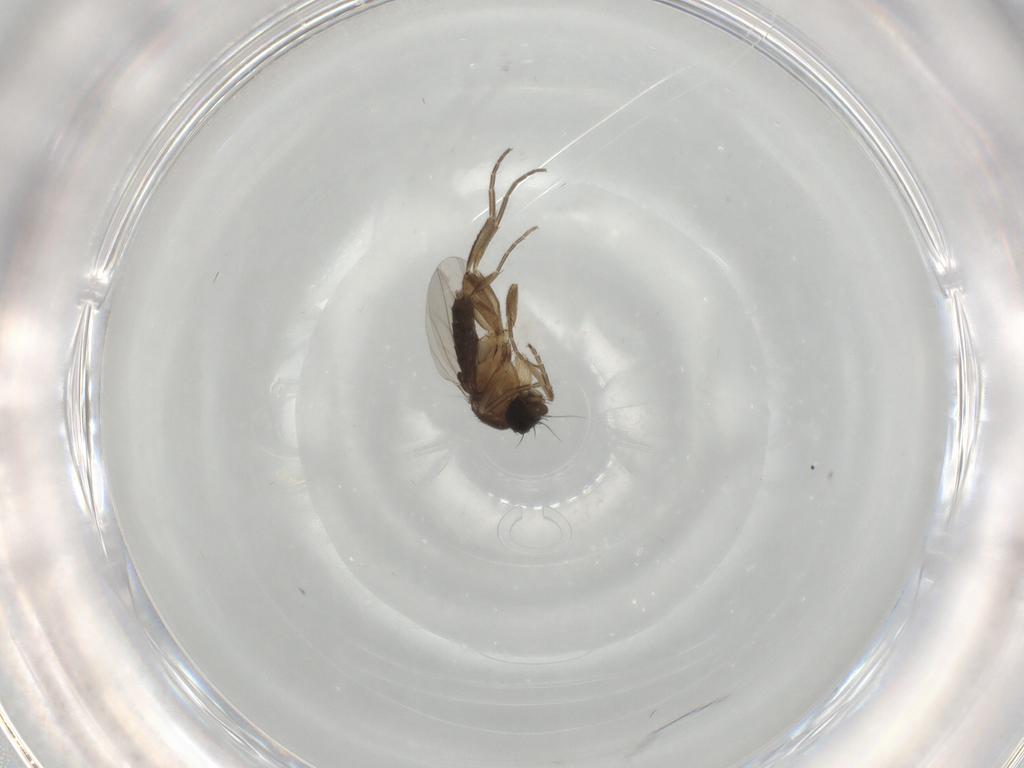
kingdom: Animalia
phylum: Arthropoda
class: Insecta
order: Diptera
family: Phoridae
